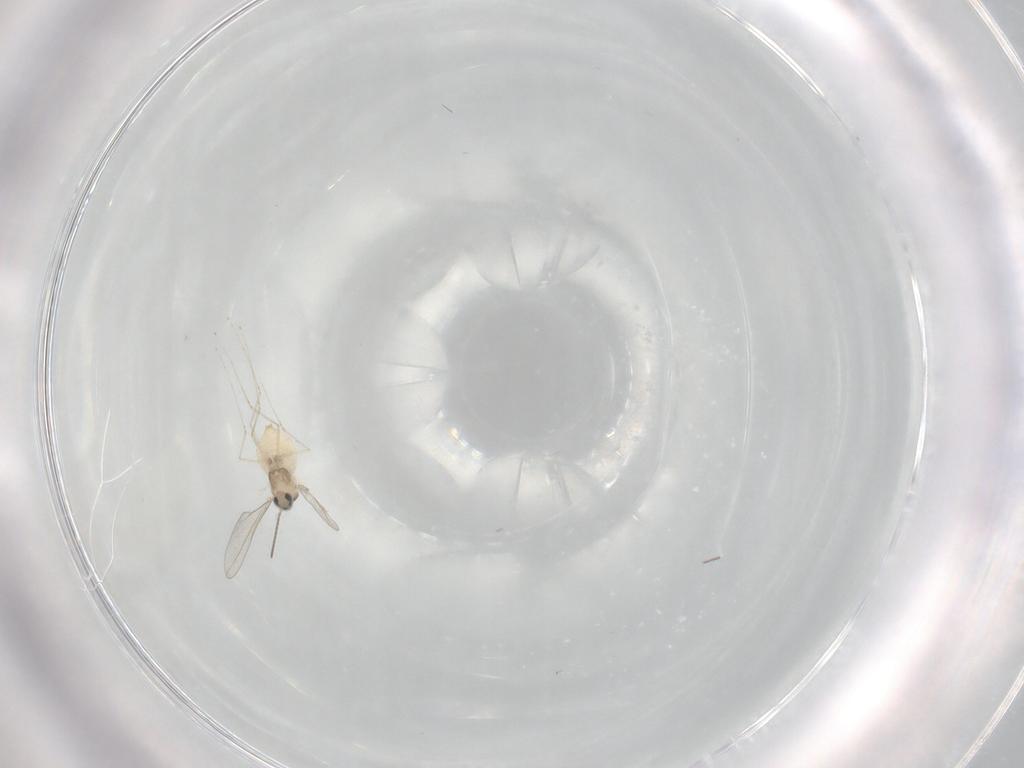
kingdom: Animalia
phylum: Arthropoda
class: Insecta
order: Diptera
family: Cecidomyiidae
